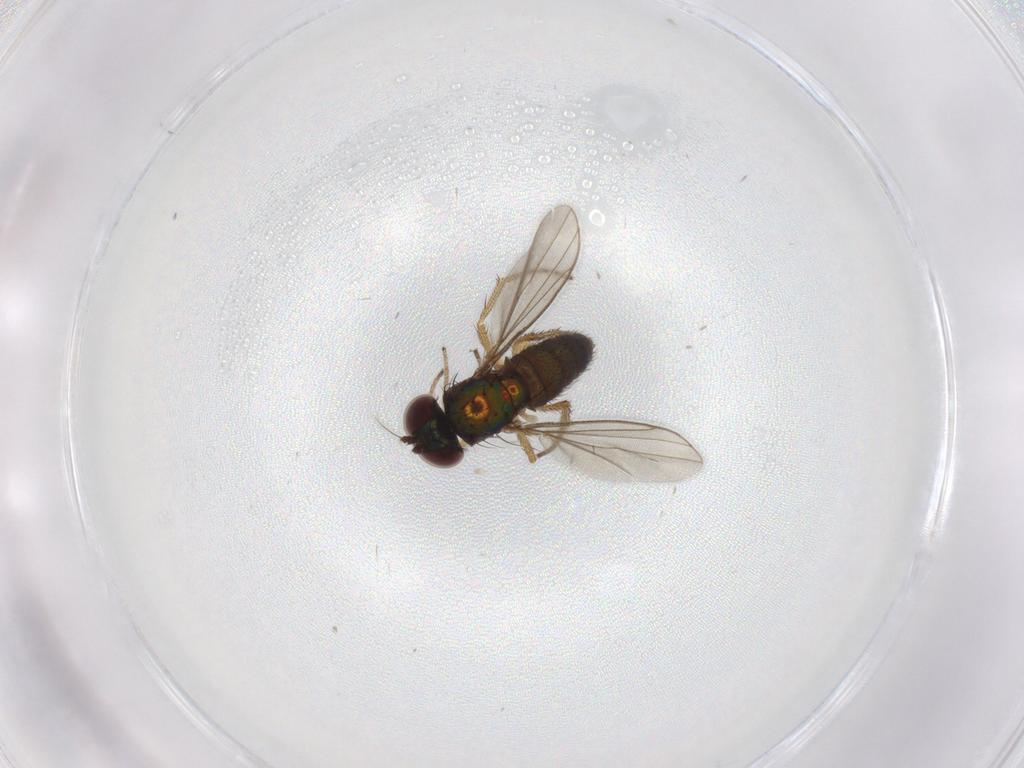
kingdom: Animalia
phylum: Arthropoda
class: Insecta
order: Diptera
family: Dolichopodidae
